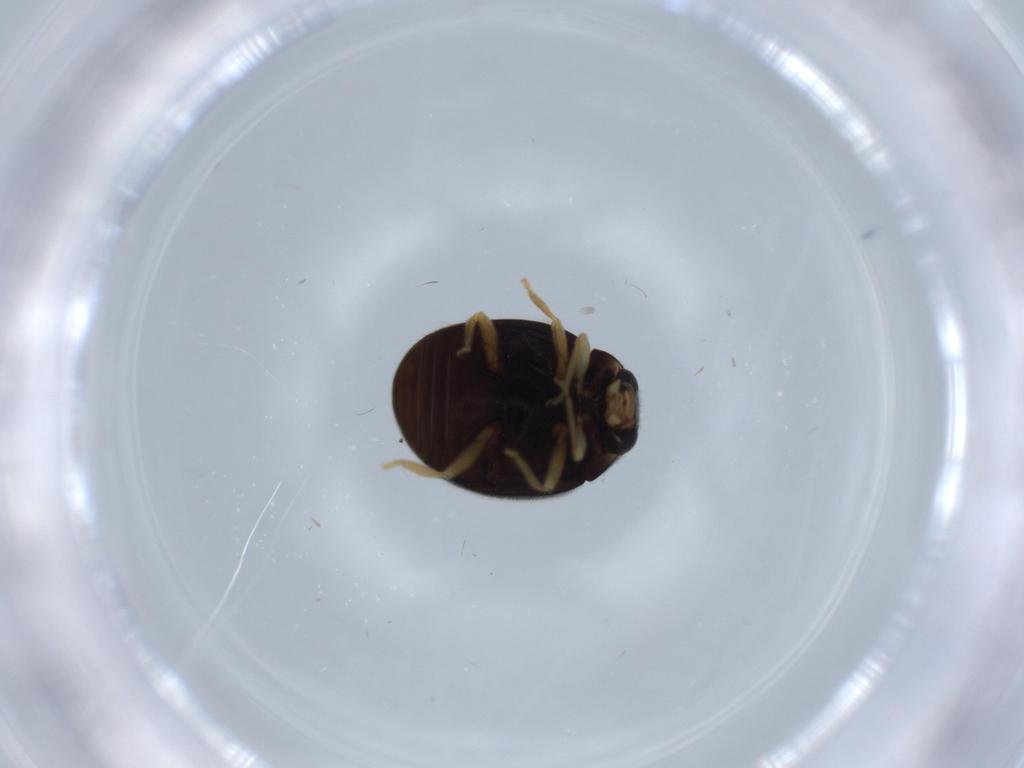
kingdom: Animalia
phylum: Arthropoda
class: Insecta
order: Coleoptera
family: Coccinellidae
